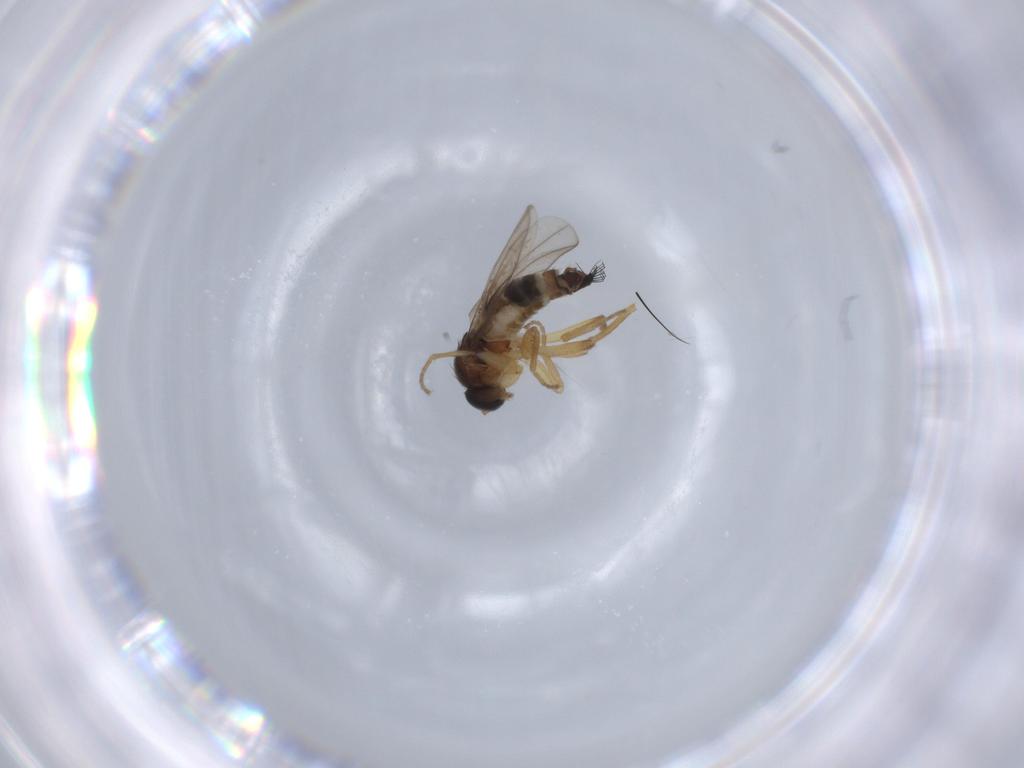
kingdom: Animalia
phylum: Arthropoda
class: Insecta
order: Diptera
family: Hybotidae
